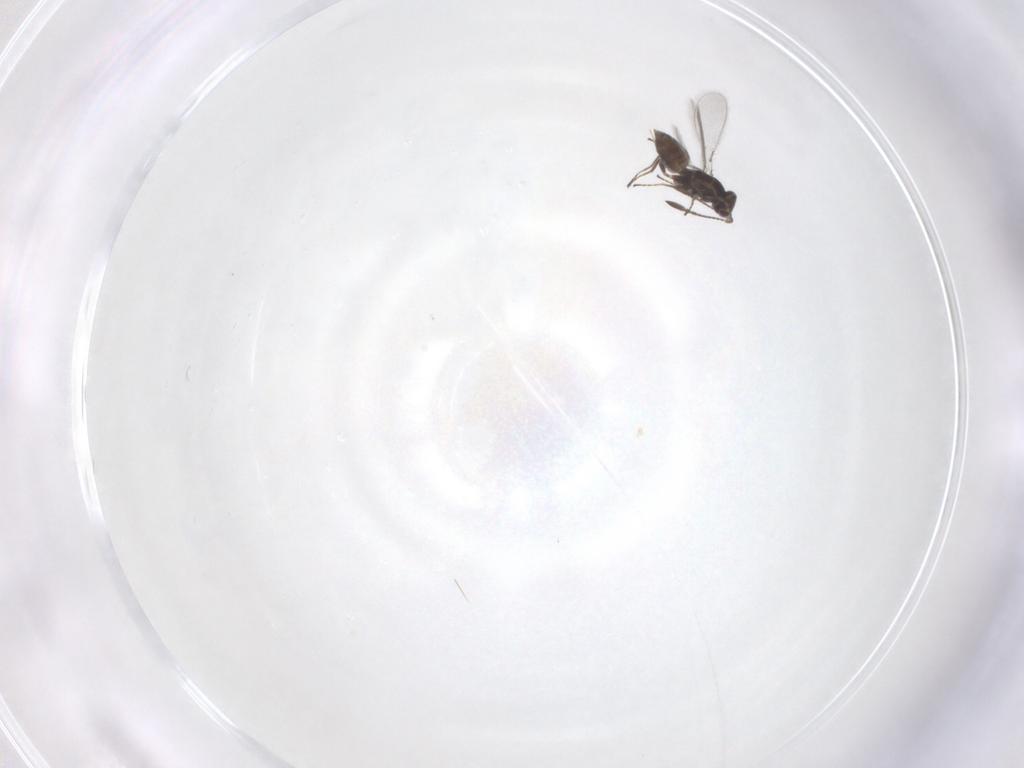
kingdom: Animalia
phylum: Arthropoda
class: Insecta
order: Hymenoptera
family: Mymaridae
